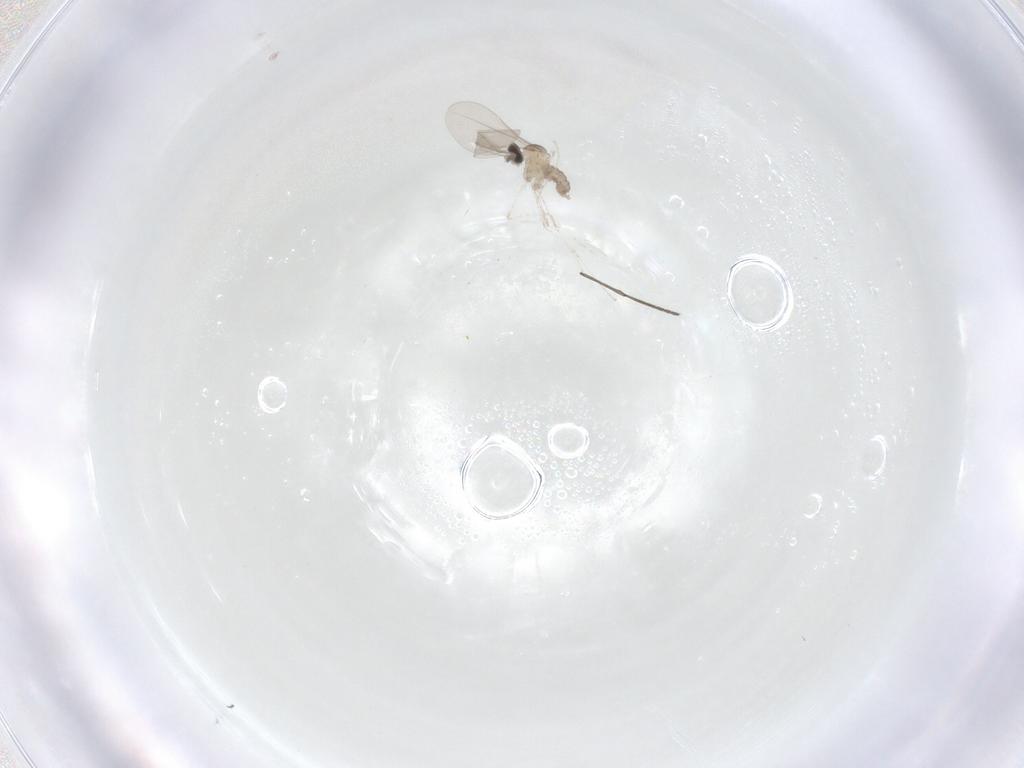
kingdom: Animalia
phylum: Arthropoda
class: Insecta
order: Diptera
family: Cecidomyiidae
